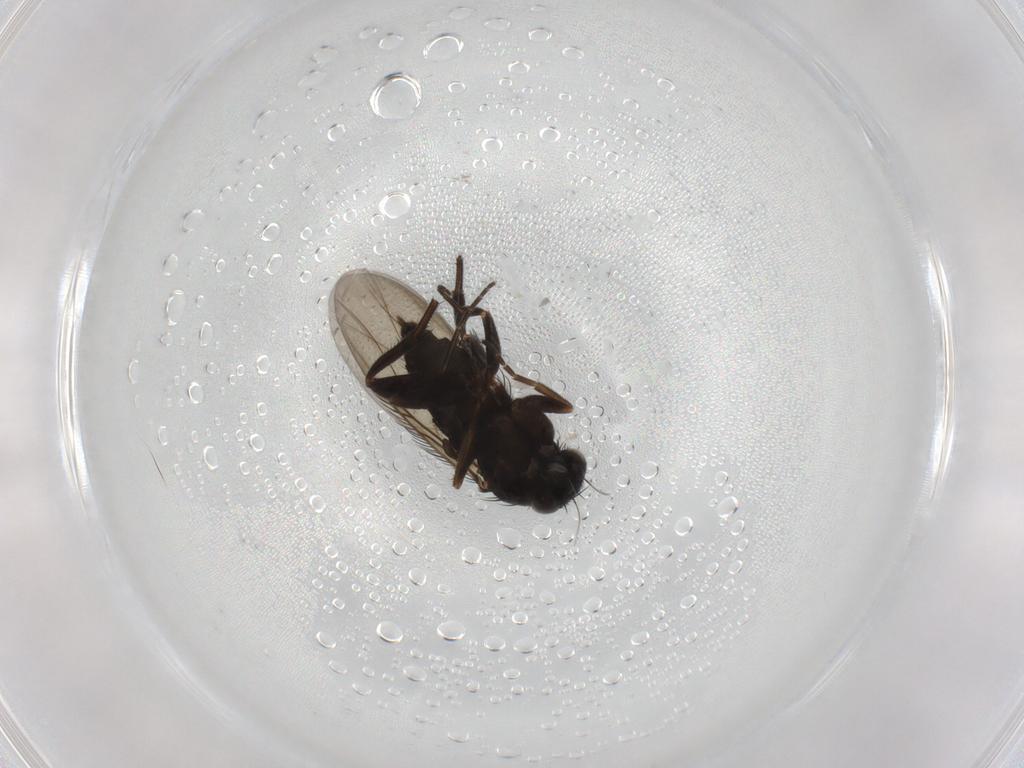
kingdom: Animalia
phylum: Arthropoda
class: Insecta
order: Diptera
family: Phoridae
